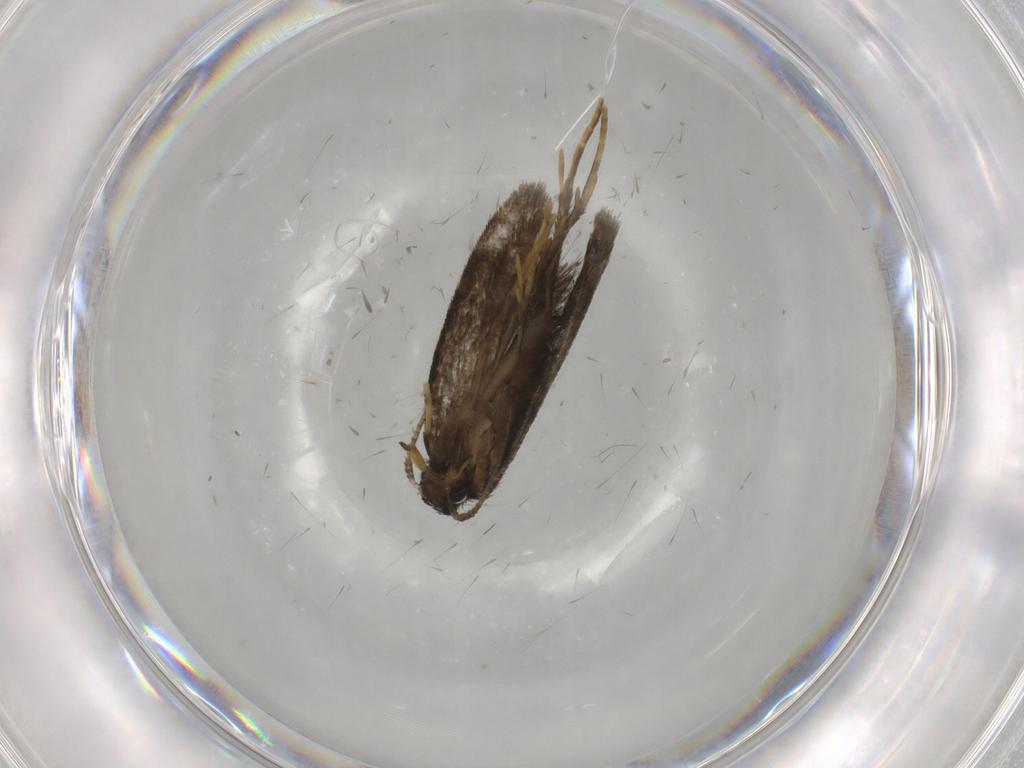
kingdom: Animalia
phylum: Arthropoda
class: Insecta
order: Lepidoptera
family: Psychidae
